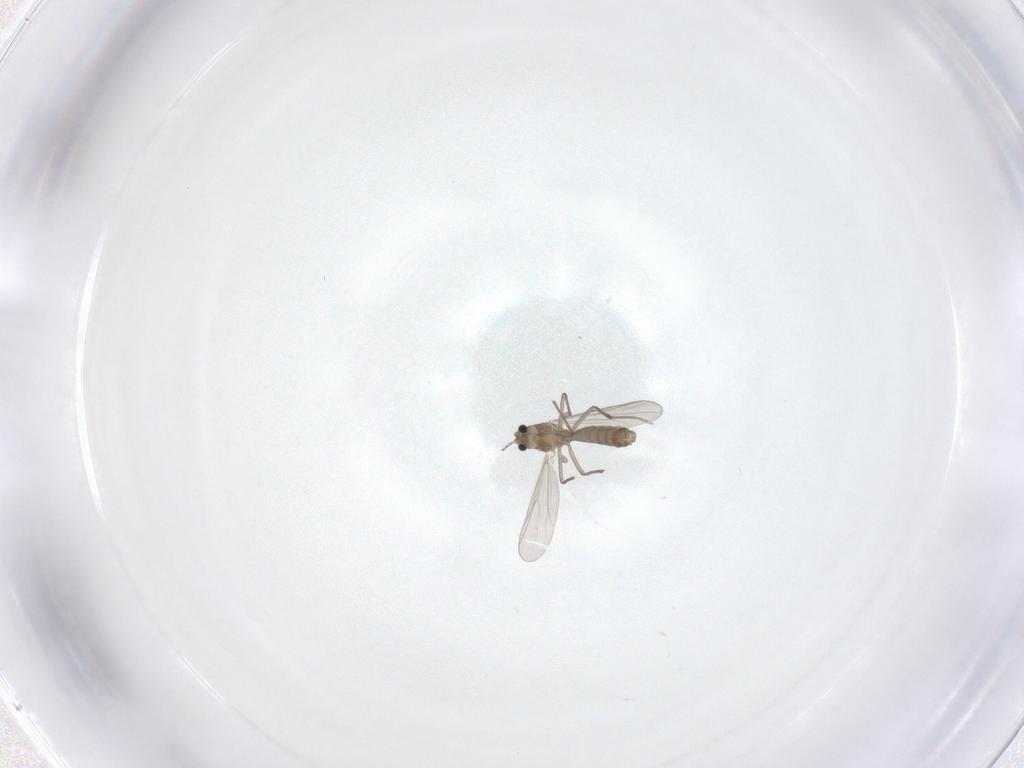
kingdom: Animalia
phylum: Arthropoda
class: Insecta
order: Diptera
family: Chironomidae
